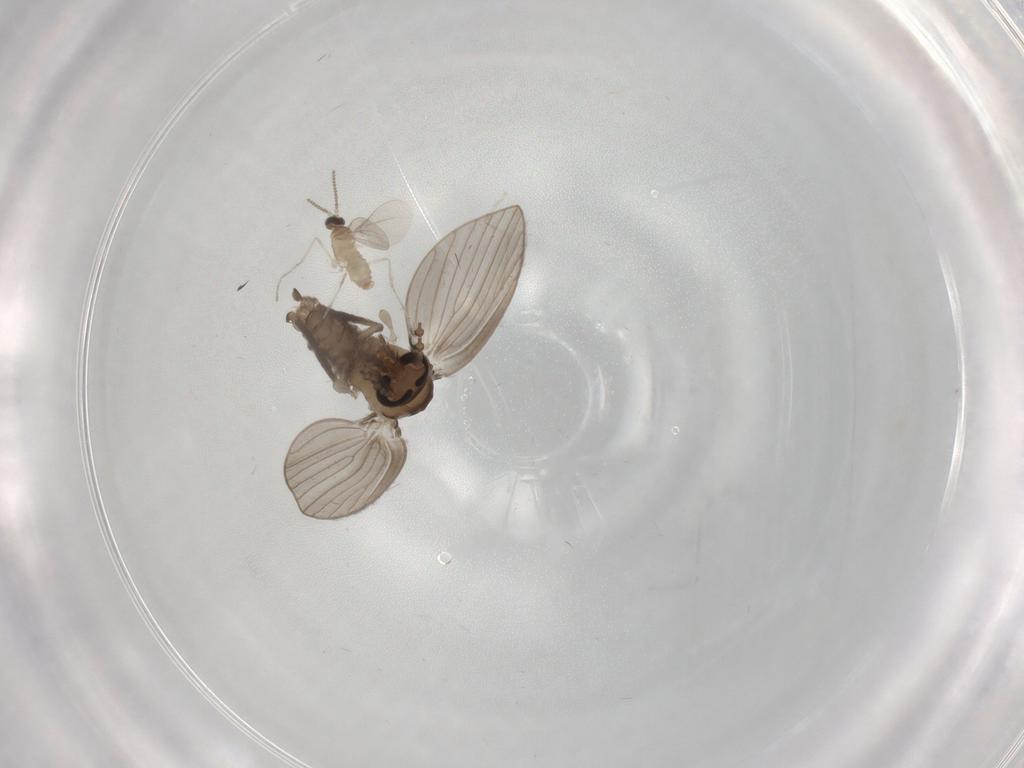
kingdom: Animalia
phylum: Arthropoda
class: Insecta
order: Diptera
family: Psychodidae
